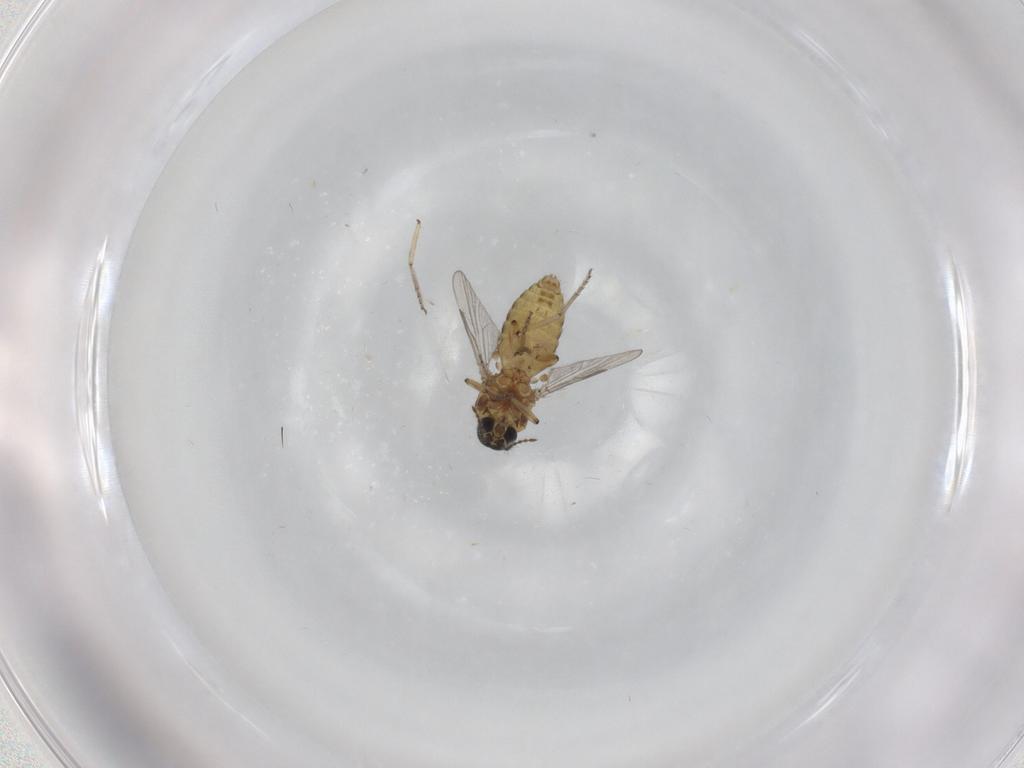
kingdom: Animalia
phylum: Arthropoda
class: Insecta
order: Diptera
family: Ceratopogonidae
